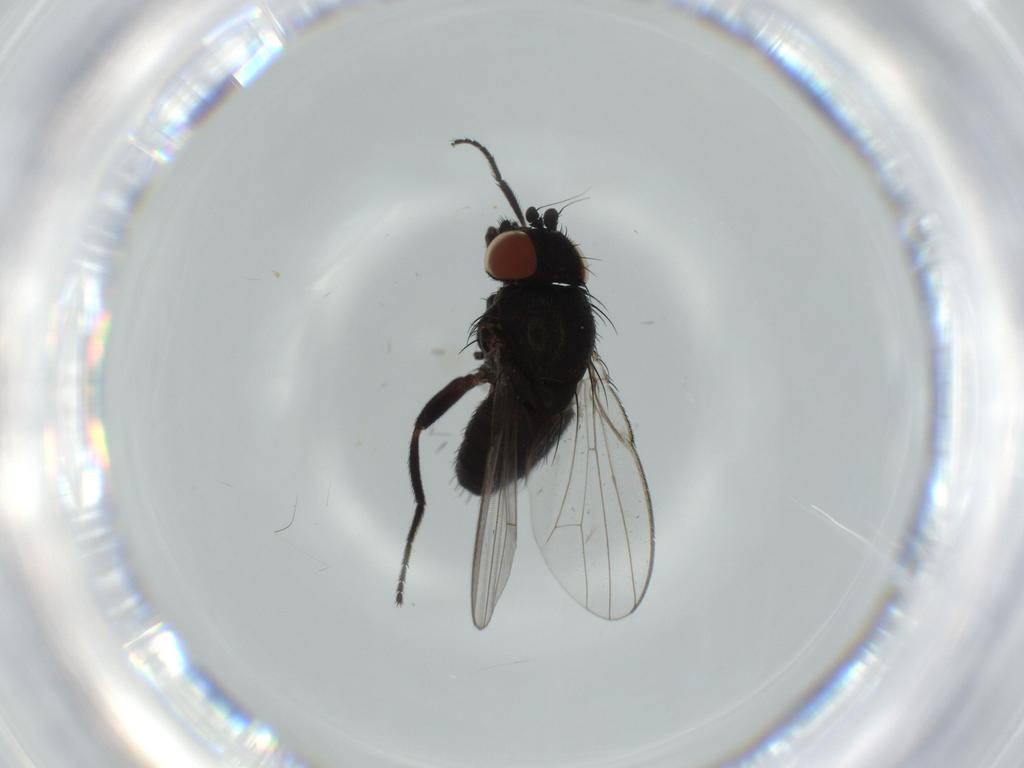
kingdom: Animalia
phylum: Arthropoda
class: Insecta
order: Diptera
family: Milichiidae
